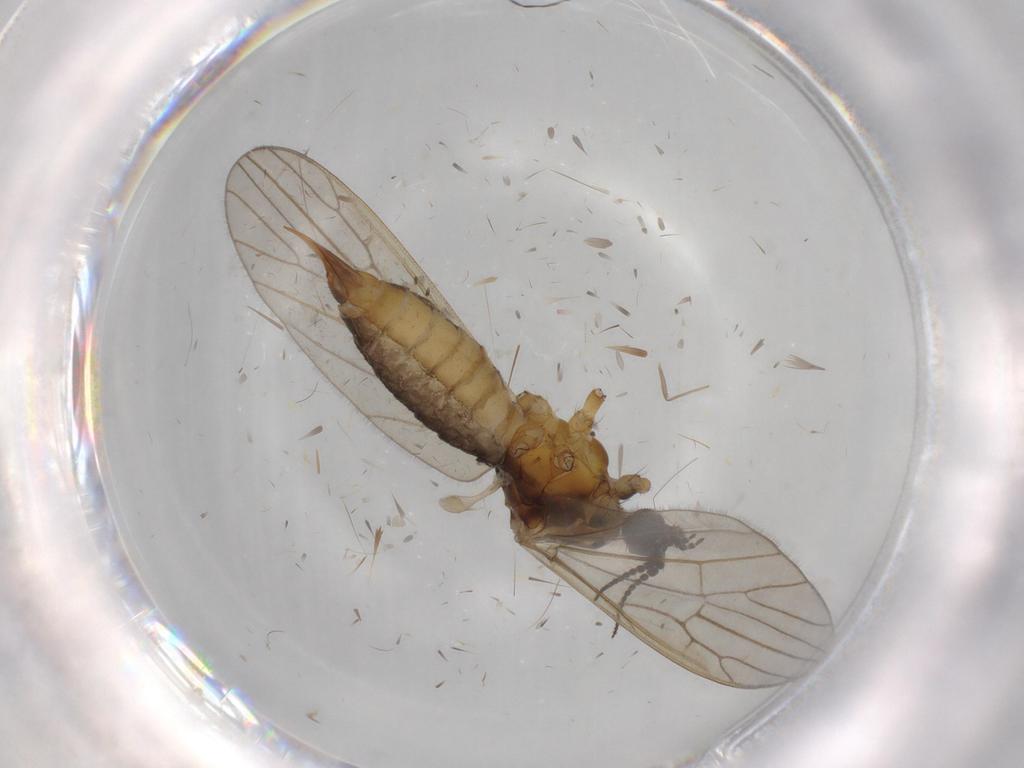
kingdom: Animalia
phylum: Arthropoda
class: Insecta
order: Diptera
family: Agromyzidae
